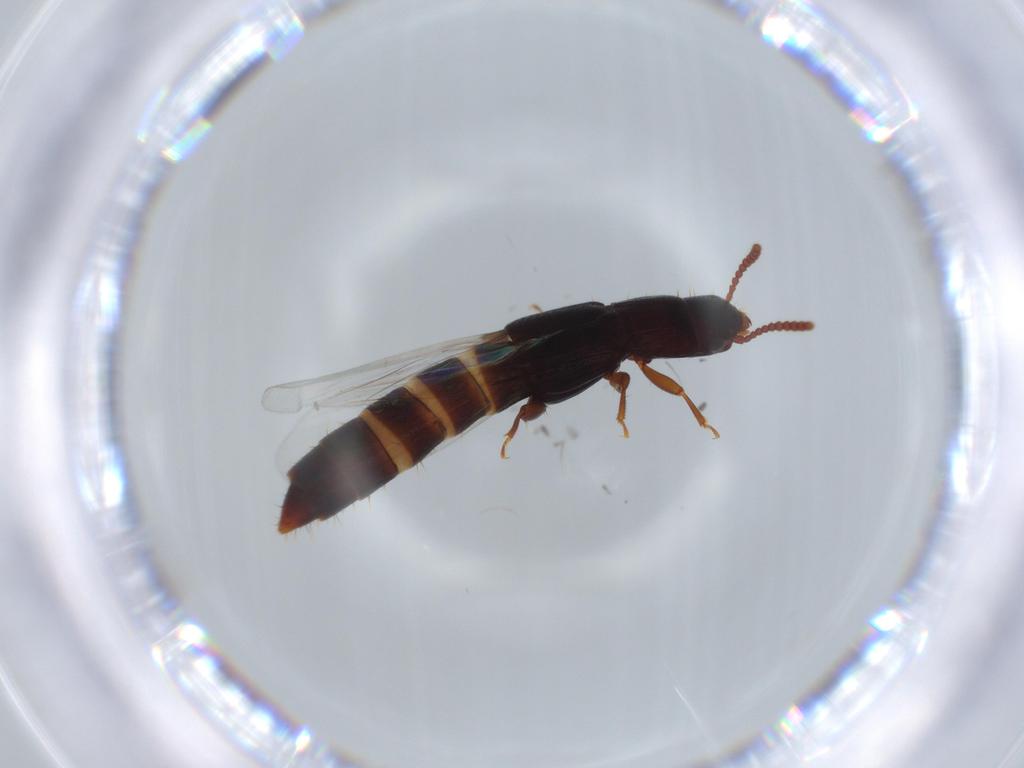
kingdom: Animalia
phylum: Arthropoda
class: Insecta
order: Coleoptera
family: Staphylinidae
